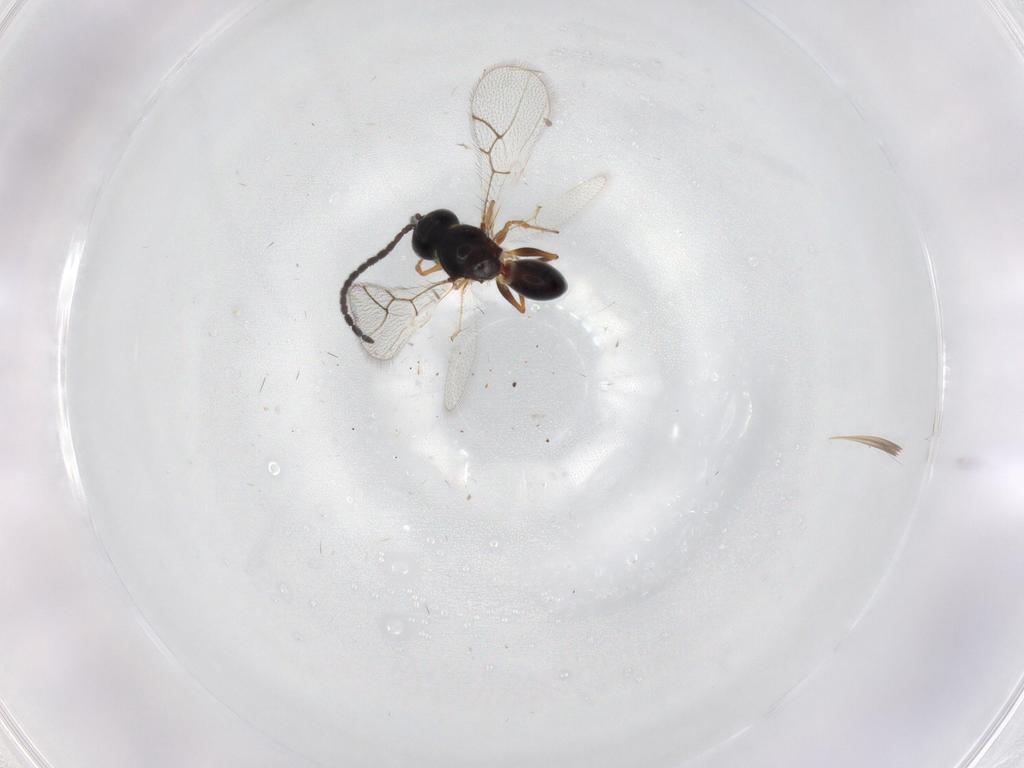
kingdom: Animalia
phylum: Arthropoda
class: Insecta
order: Hymenoptera
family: Figitidae
